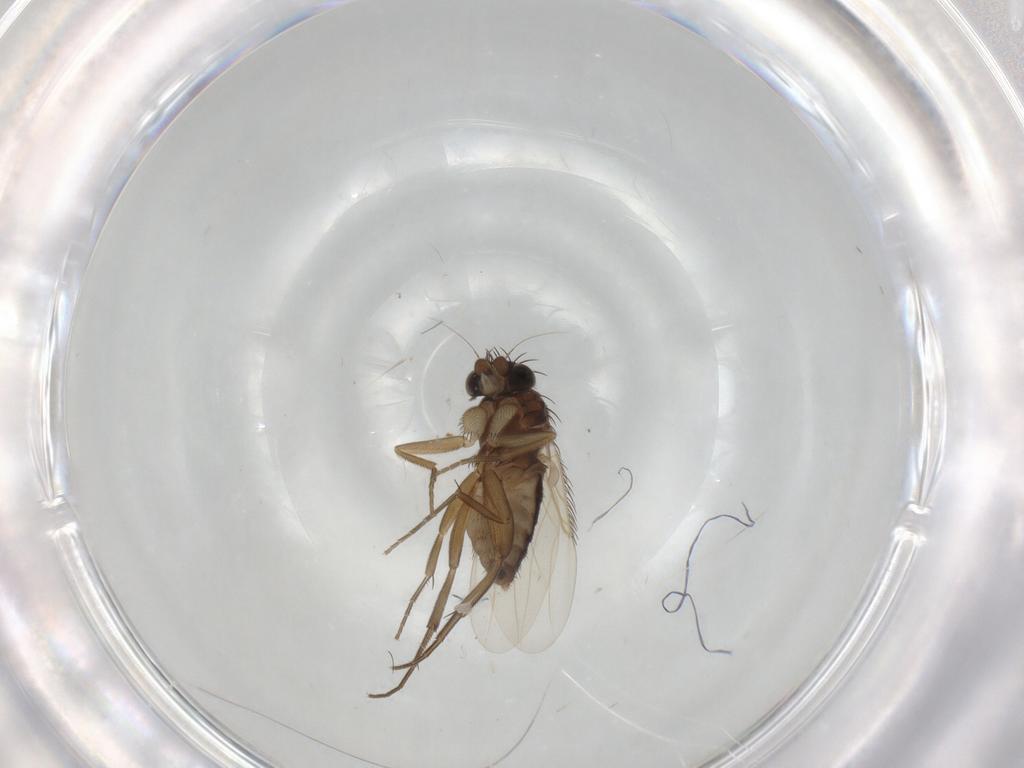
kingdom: Animalia
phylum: Arthropoda
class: Insecta
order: Diptera
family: Phoridae
